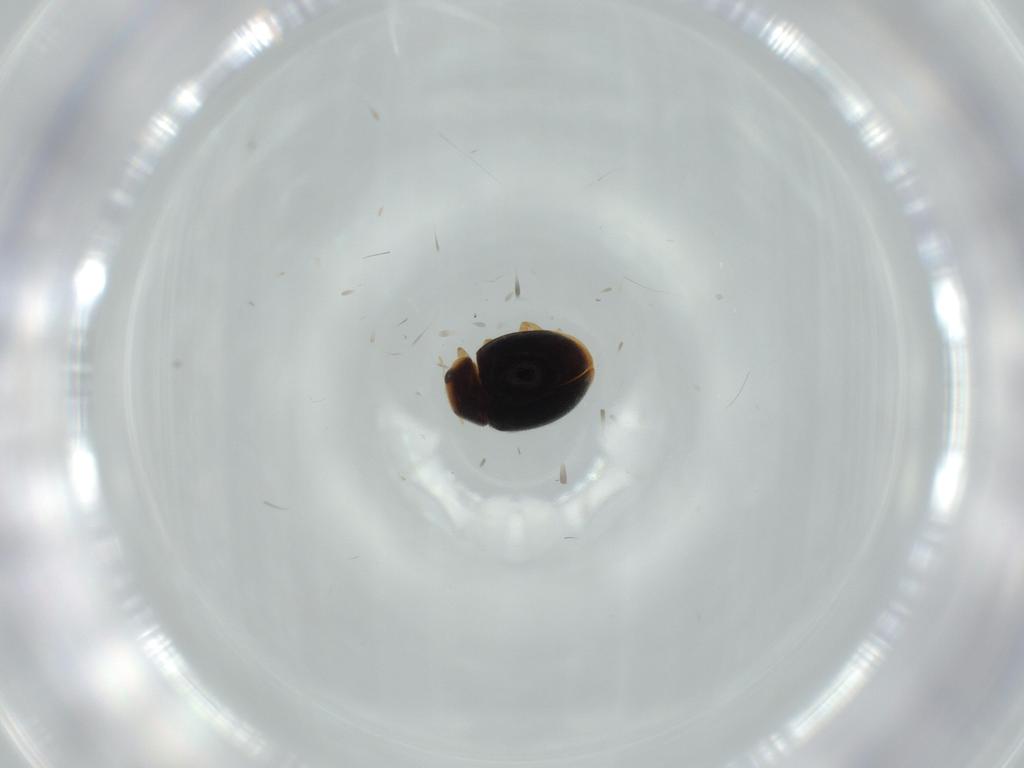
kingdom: Animalia
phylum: Arthropoda
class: Insecta
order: Coleoptera
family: Coccinellidae
